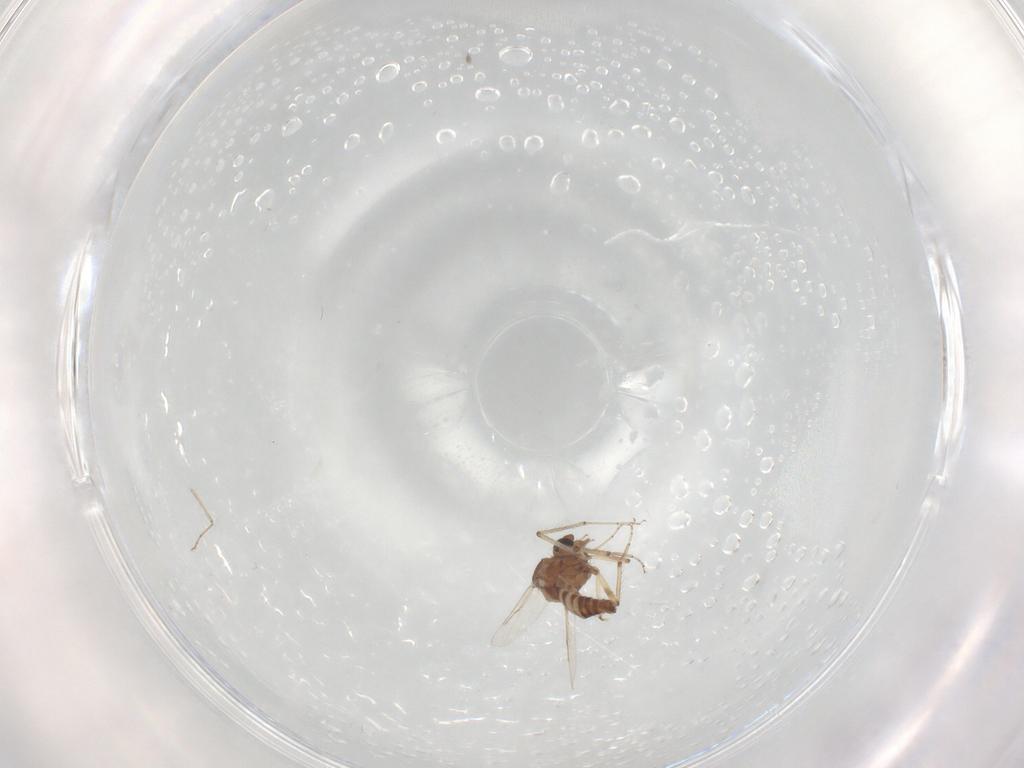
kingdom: Animalia
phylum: Arthropoda
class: Insecta
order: Diptera
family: Ceratopogonidae
